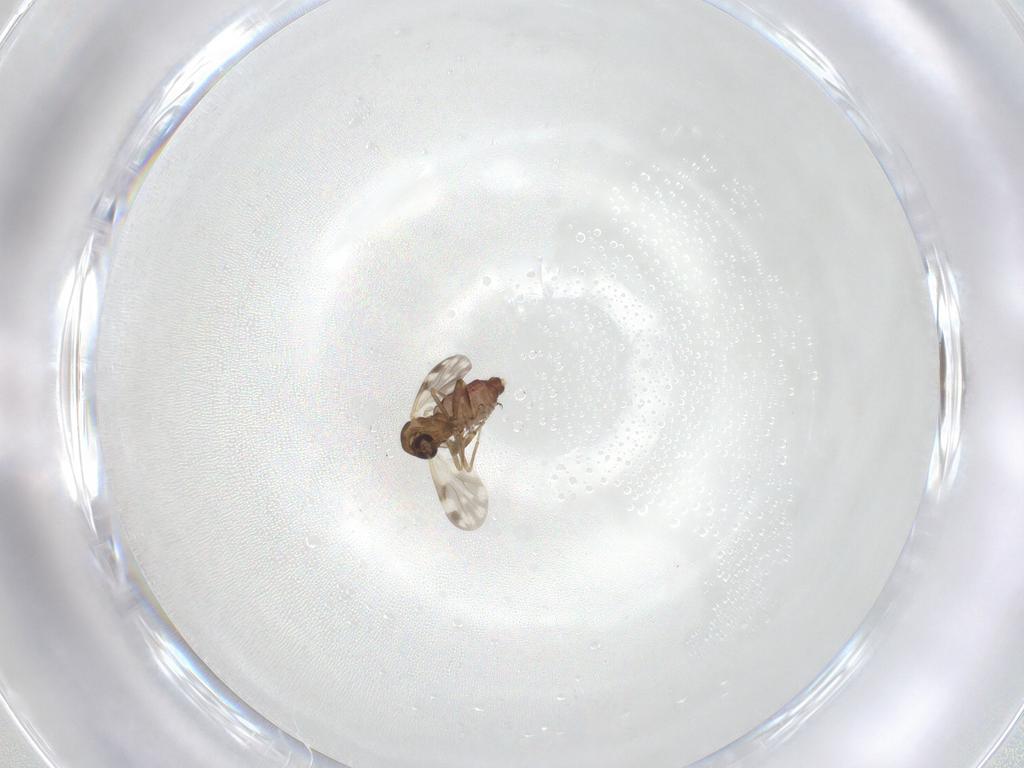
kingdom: Animalia
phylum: Arthropoda
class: Insecta
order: Diptera
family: Ceratopogonidae
